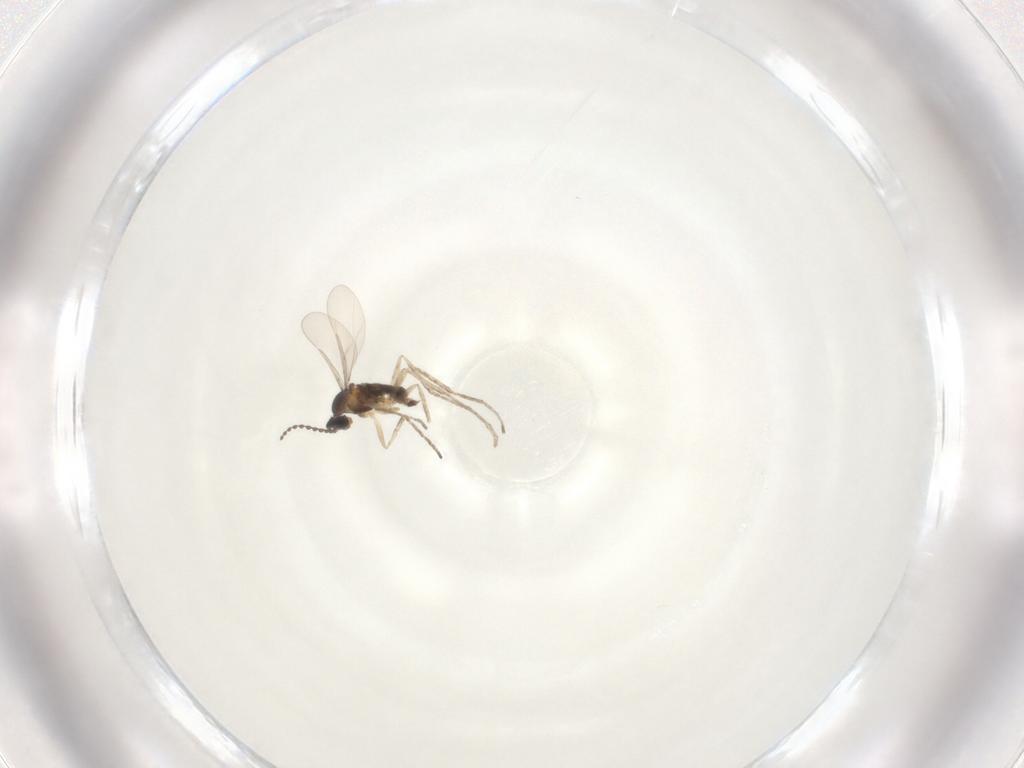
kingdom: Animalia
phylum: Arthropoda
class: Insecta
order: Diptera
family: Cecidomyiidae
